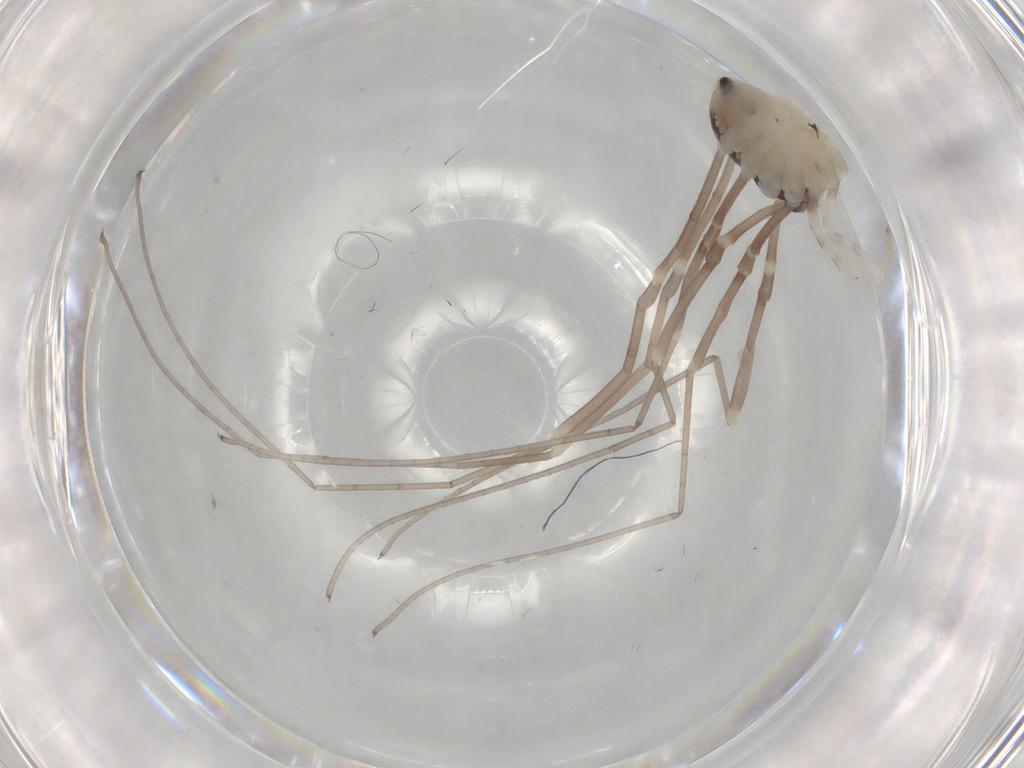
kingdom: Animalia
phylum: Arthropoda
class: Arachnida
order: Opiliones
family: Sclerosomatidae
